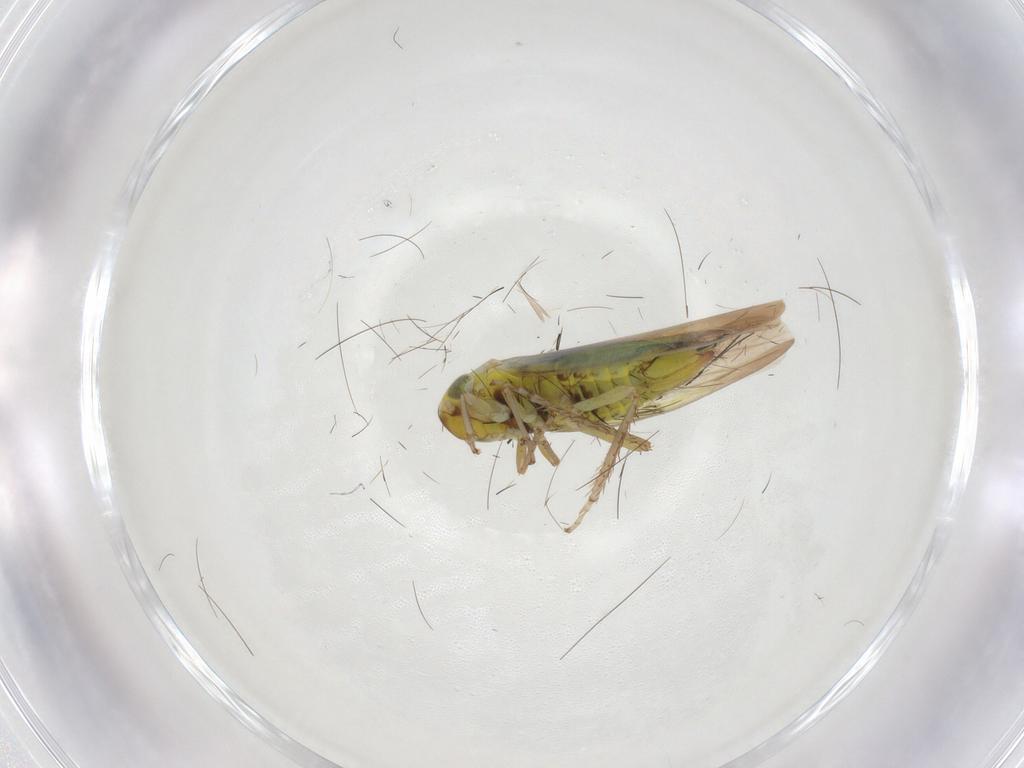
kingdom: Animalia
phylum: Arthropoda
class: Insecta
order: Hemiptera
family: Cicadellidae
